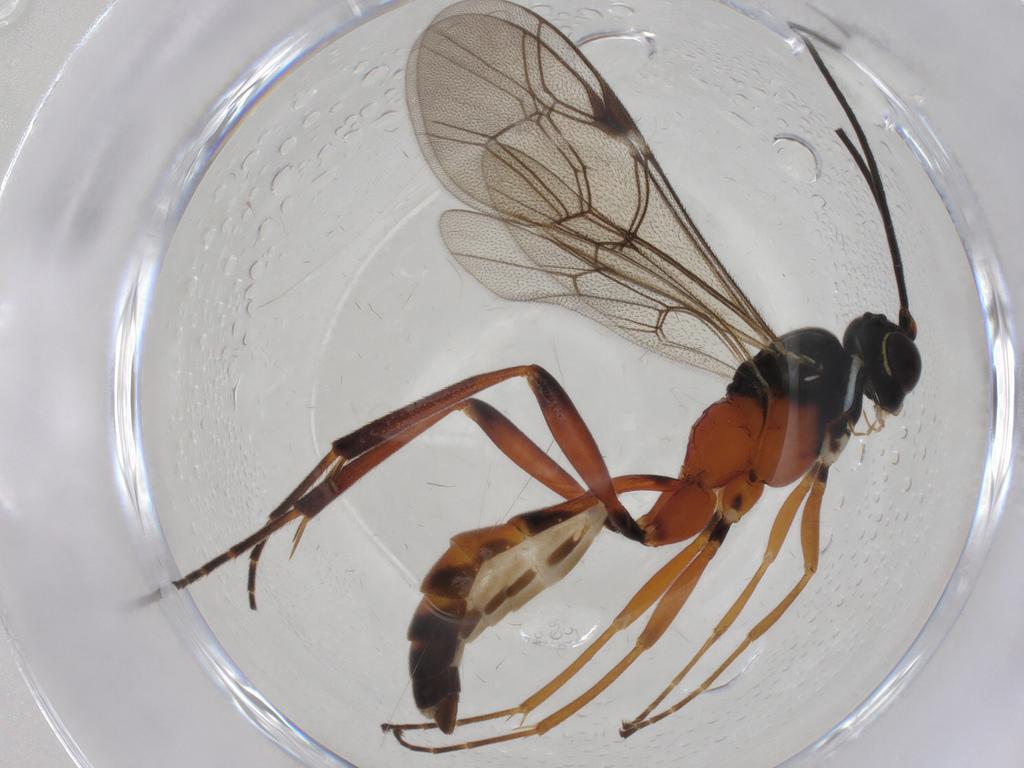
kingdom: Animalia
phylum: Arthropoda
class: Insecta
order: Hymenoptera
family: Ichneumonidae
